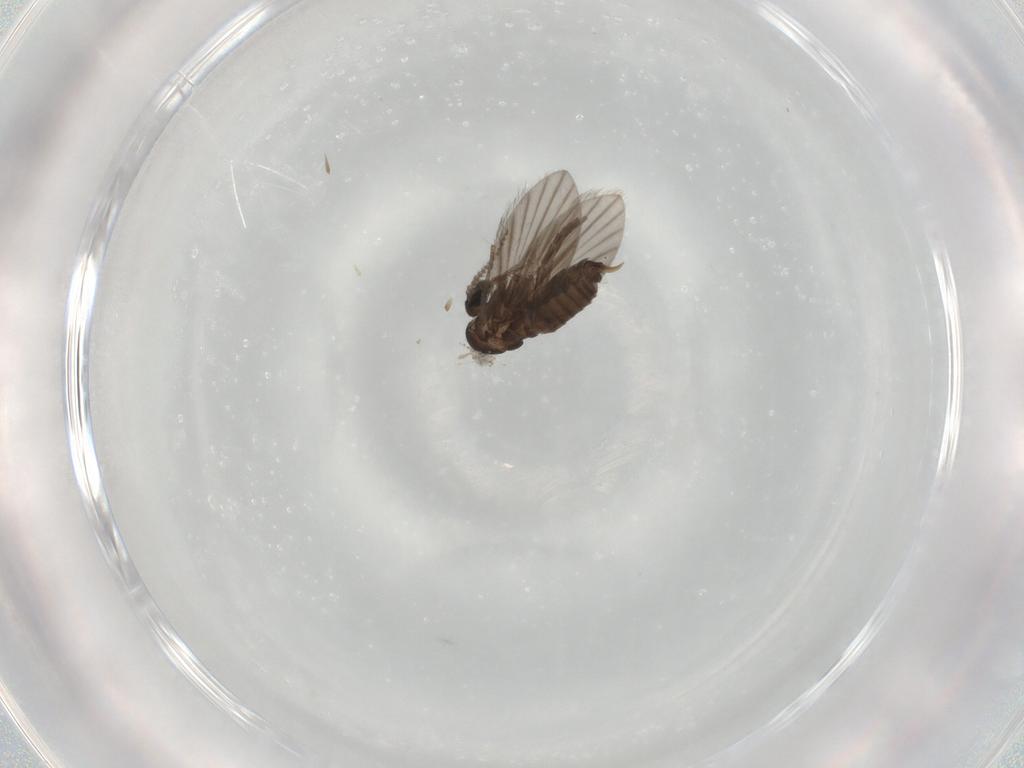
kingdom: Animalia
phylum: Arthropoda
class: Insecta
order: Diptera
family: Psychodidae
